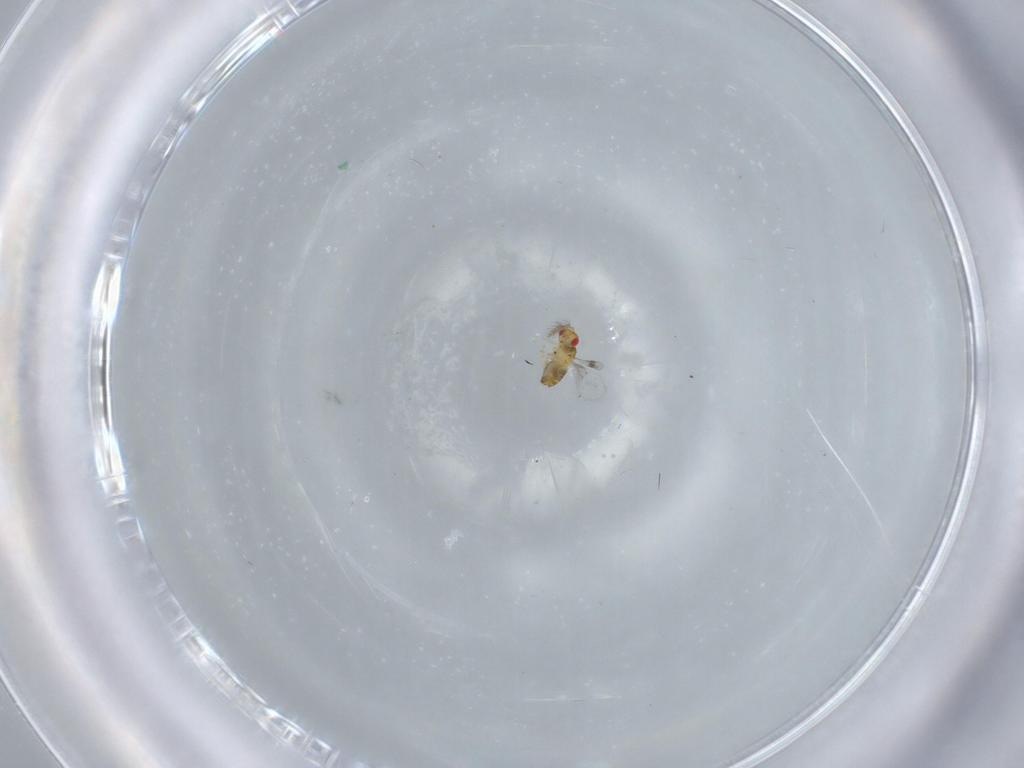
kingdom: Animalia
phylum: Arthropoda
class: Insecta
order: Hymenoptera
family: Trichogrammatidae
